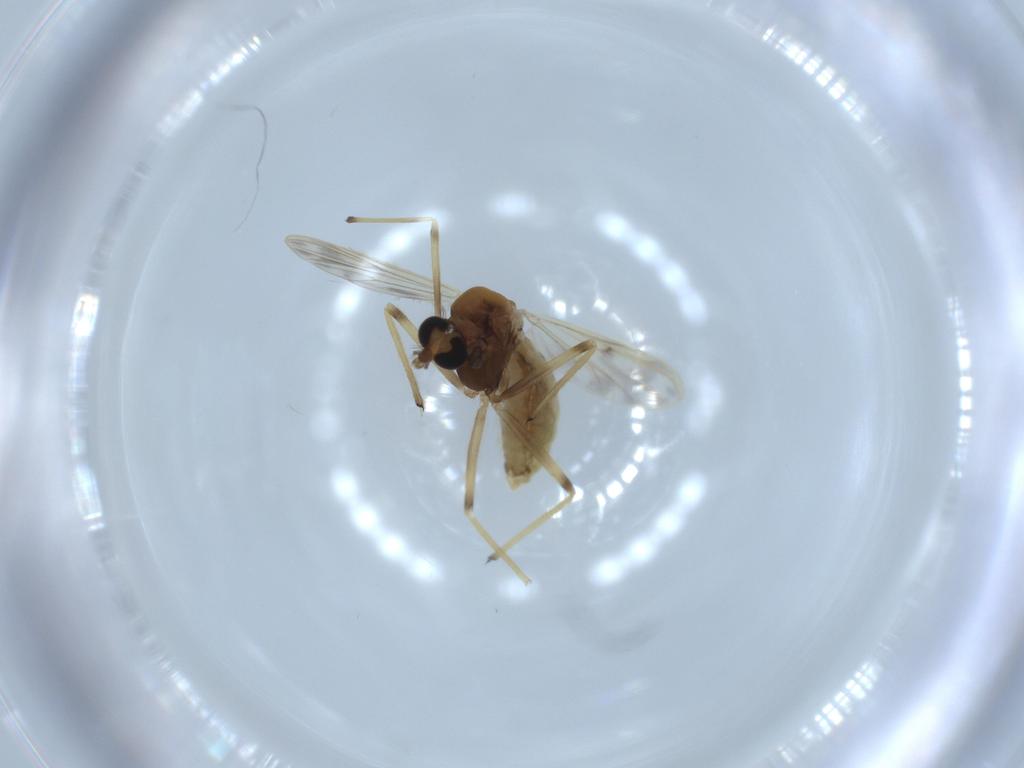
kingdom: Animalia
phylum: Arthropoda
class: Insecta
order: Diptera
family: Chironomidae
